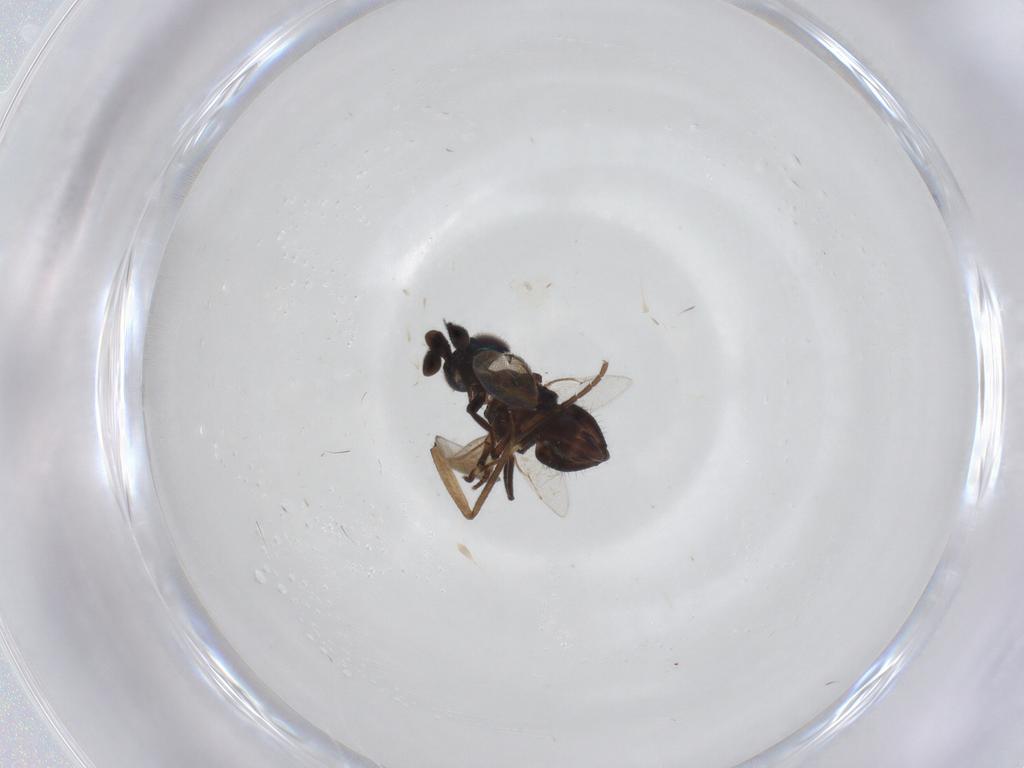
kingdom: Animalia
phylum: Arthropoda
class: Insecta
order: Hymenoptera
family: Encyrtidae
